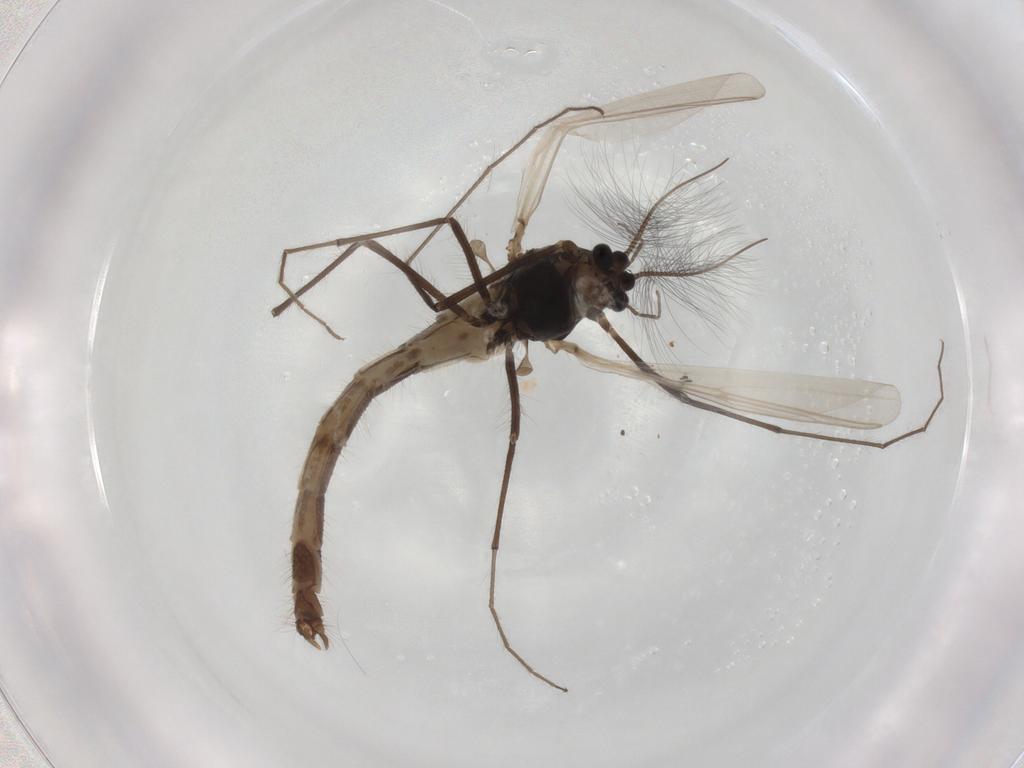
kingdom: Animalia
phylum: Arthropoda
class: Insecta
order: Diptera
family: Chironomidae
